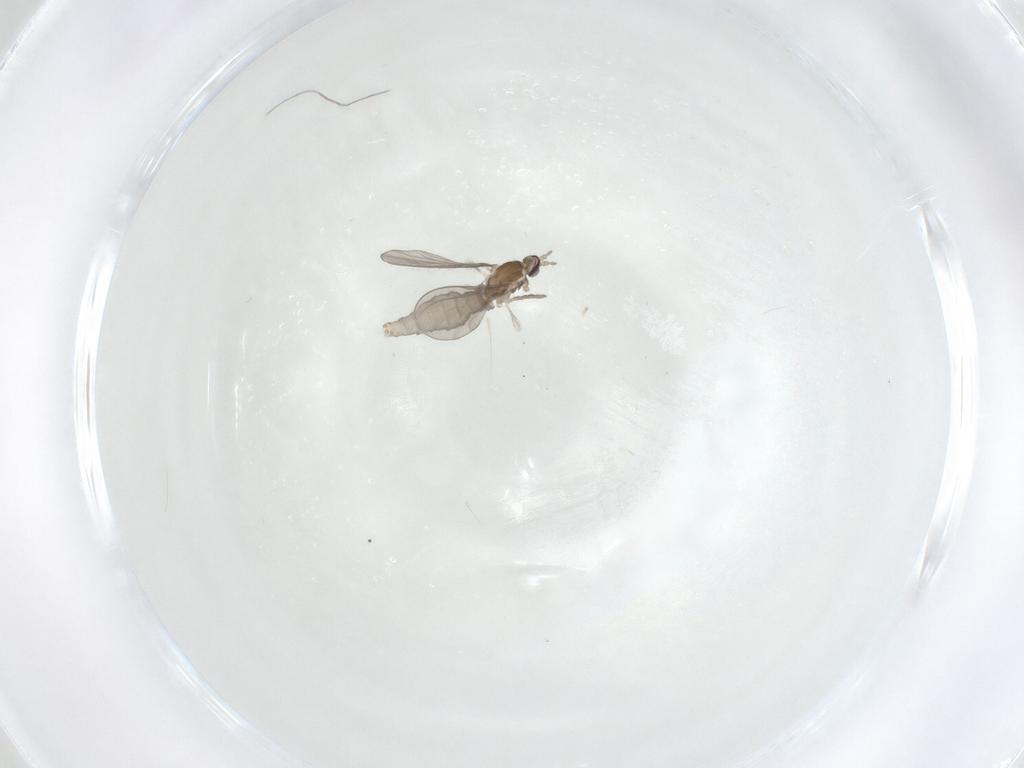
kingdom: Animalia
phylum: Arthropoda
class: Insecta
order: Diptera
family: Cecidomyiidae
